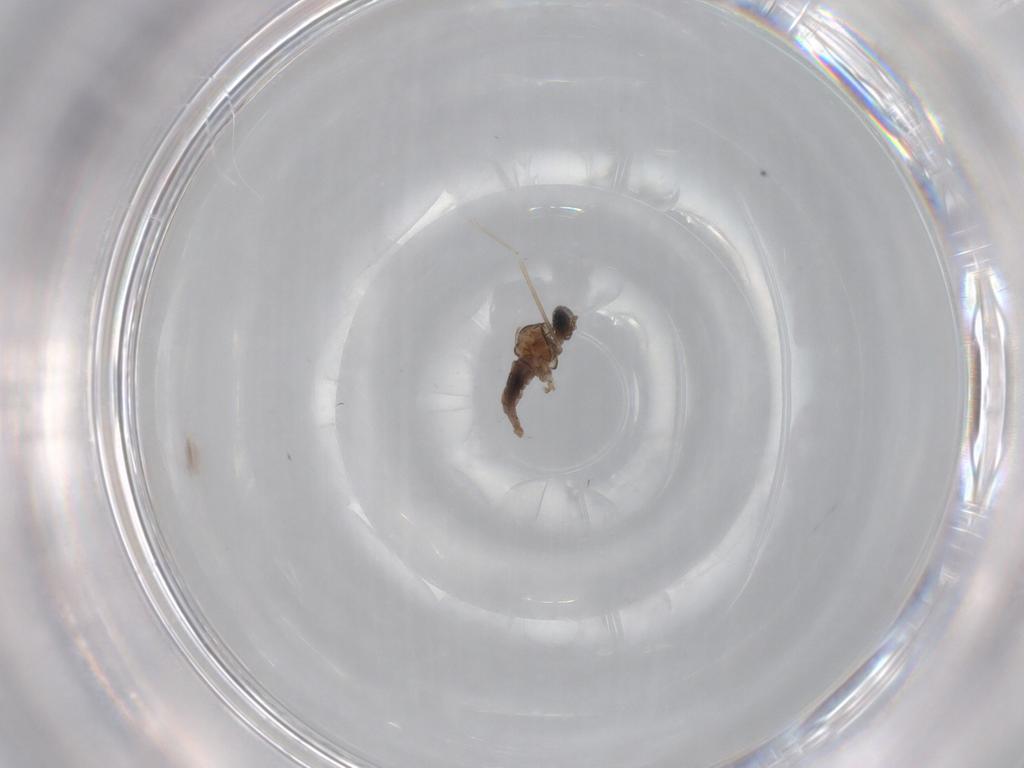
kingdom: Animalia
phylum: Arthropoda
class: Insecta
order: Diptera
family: Cecidomyiidae
